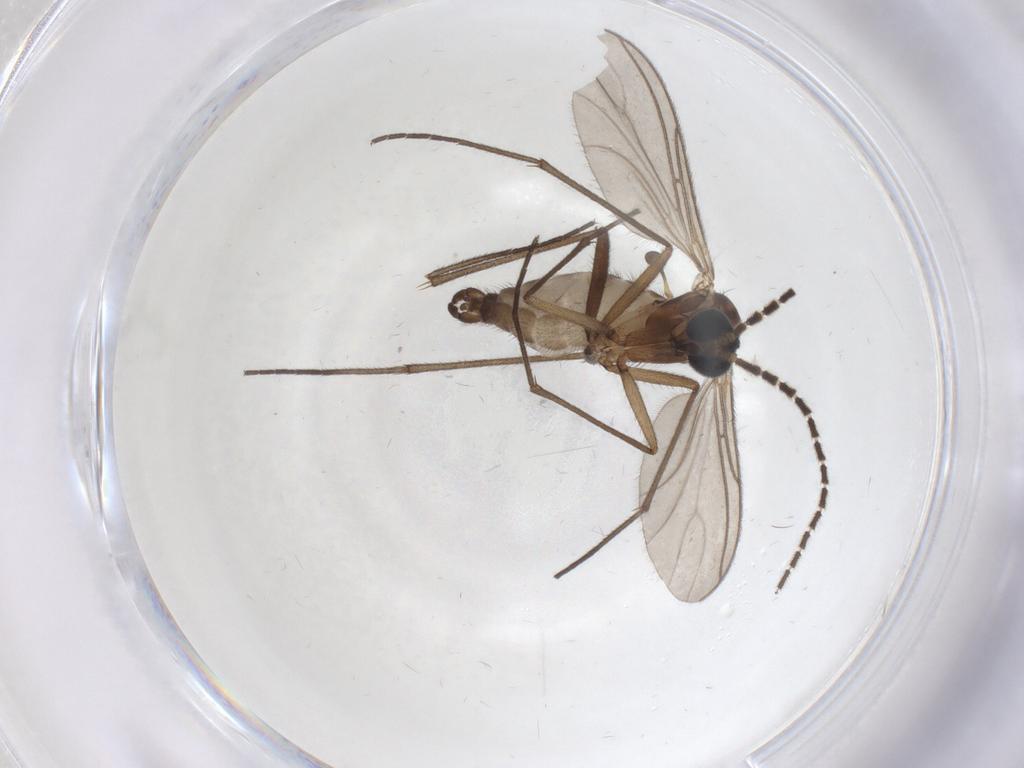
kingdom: Animalia
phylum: Arthropoda
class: Insecta
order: Diptera
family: Sciaridae
